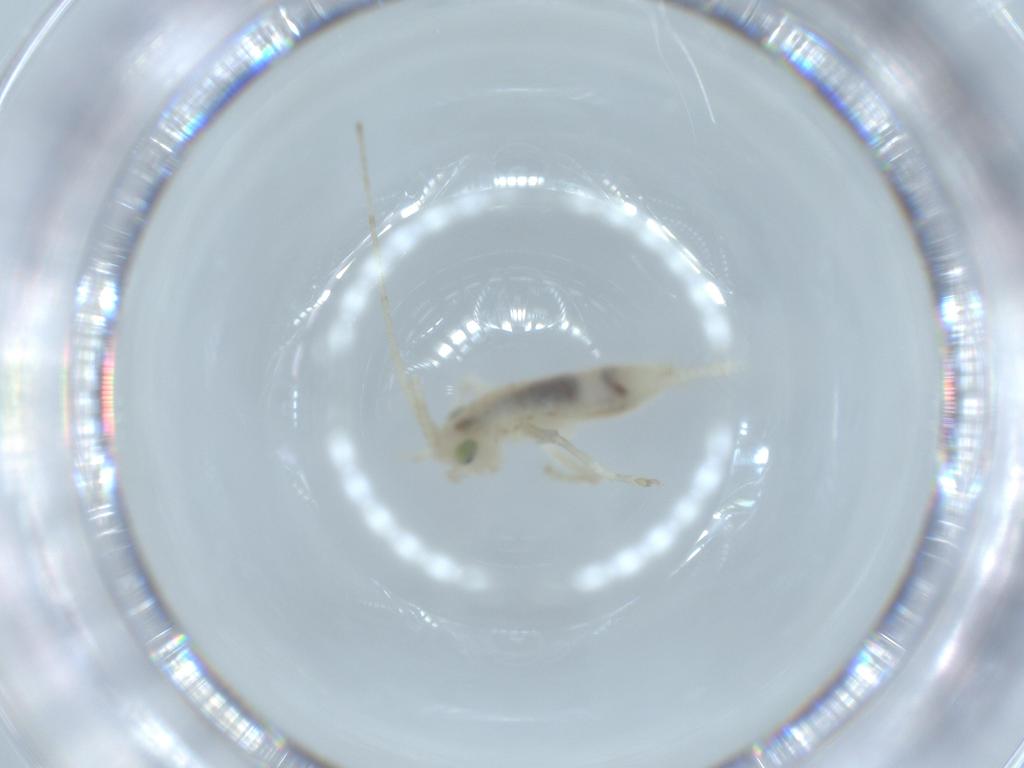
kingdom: Animalia
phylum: Arthropoda
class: Insecta
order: Orthoptera
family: Trigonidiidae
